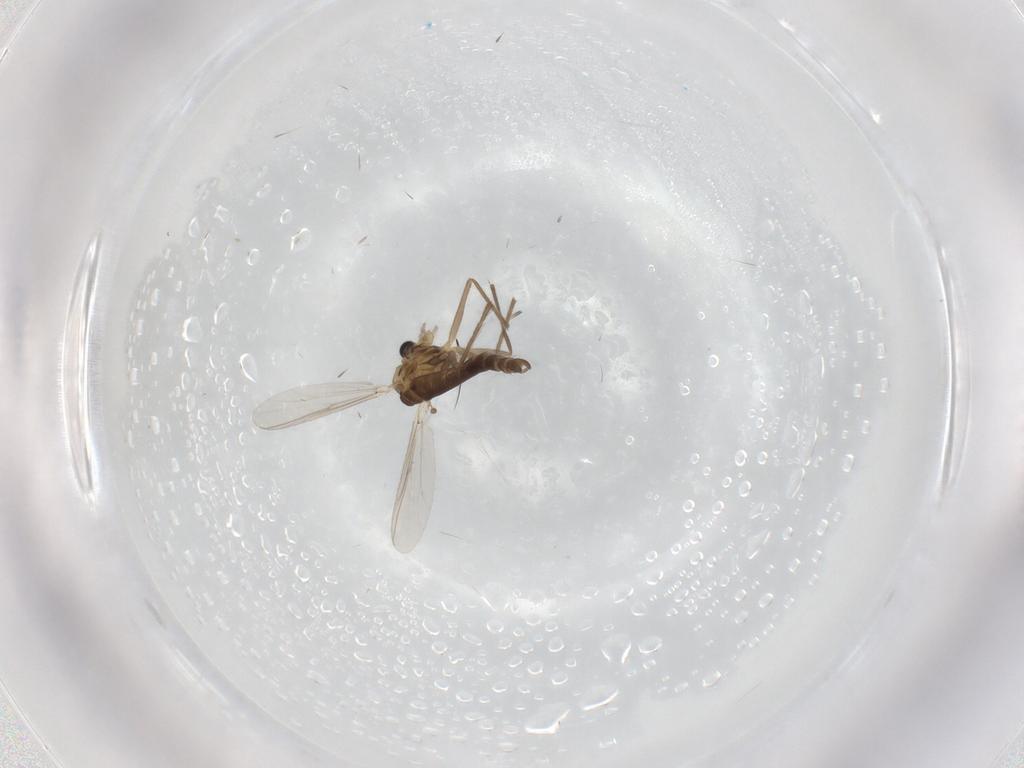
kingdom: Animalia
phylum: Arthropoda
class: Insecta
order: Diptera
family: Chironomidae
